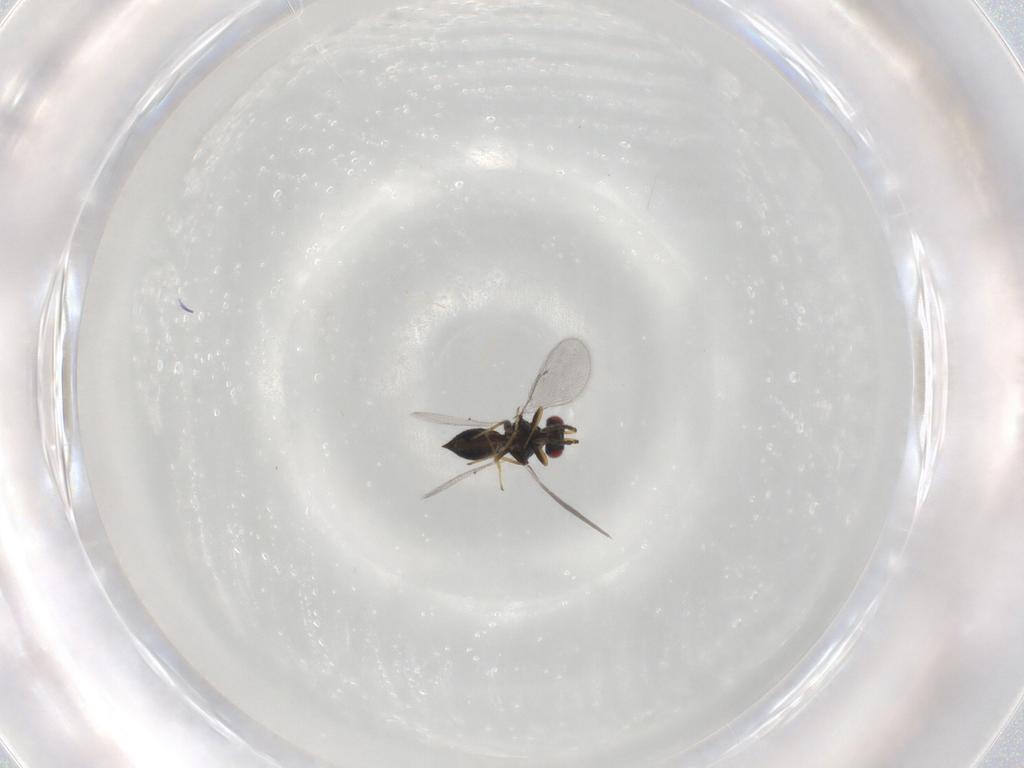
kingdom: Animalia
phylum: Arthropoda
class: Insecta
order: Hymenoptera
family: Eulophidae
